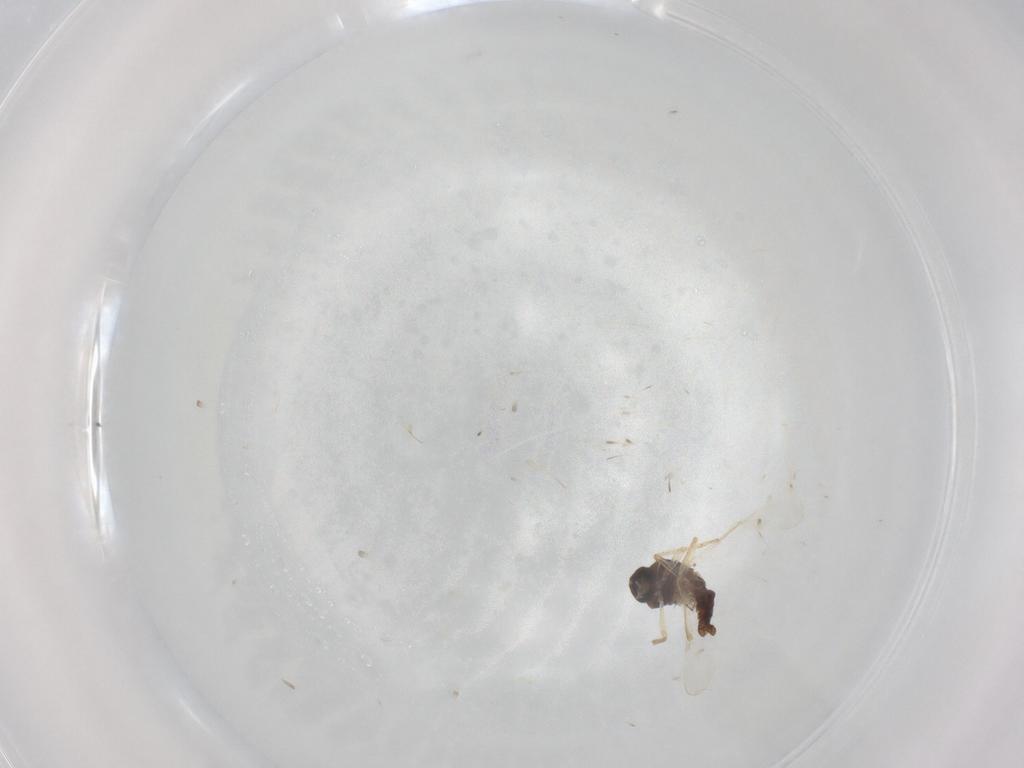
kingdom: Animalia
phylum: Arthropoda
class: Insecta
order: Diptera
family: Ceratopogonidae
